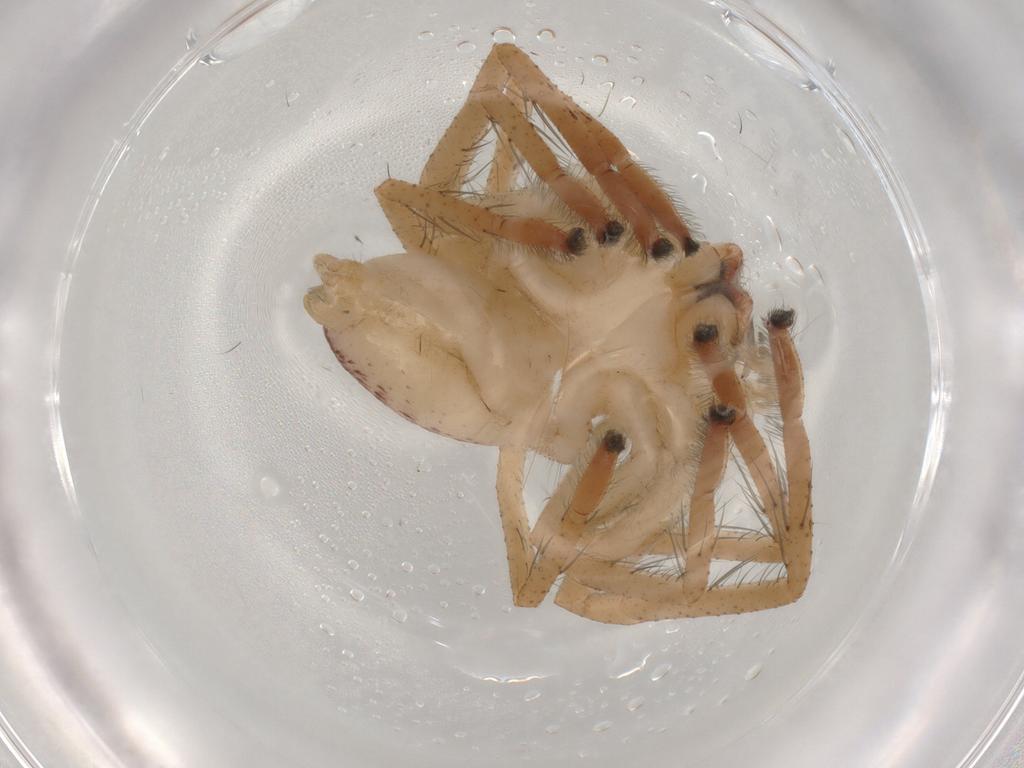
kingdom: Animalia
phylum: Arthropoda
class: Arachnida
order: Araneae
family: Sparassidae
